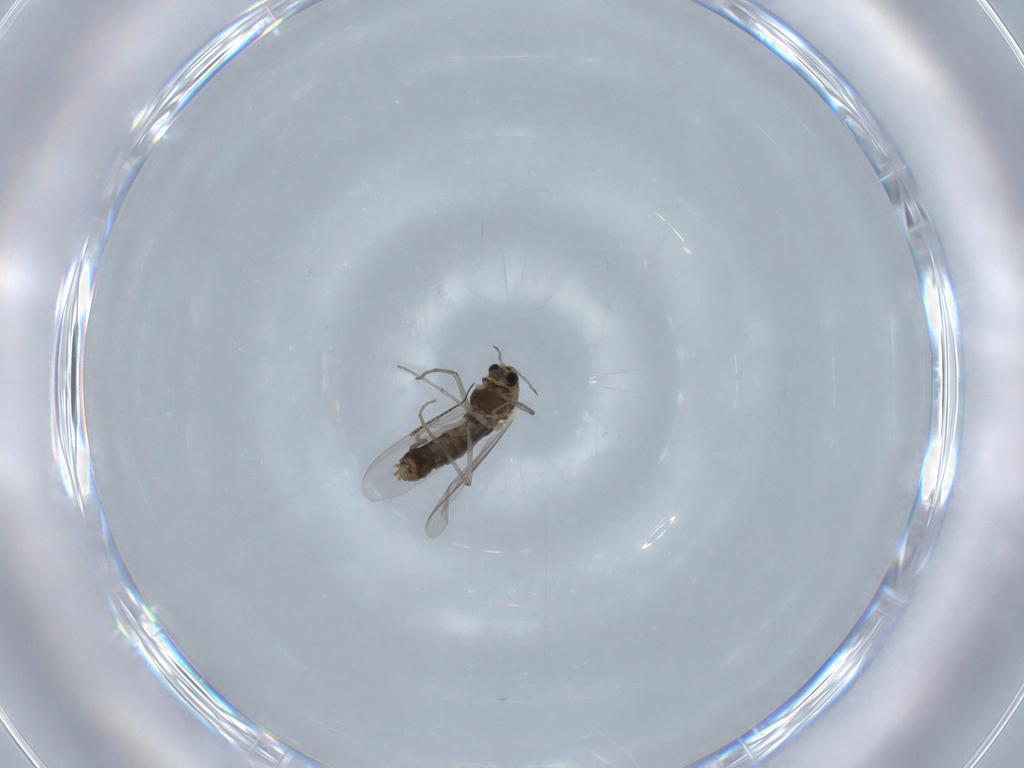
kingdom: Animalia
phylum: Arthropoda
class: Insecta
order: Diptera
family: Chironomidae
